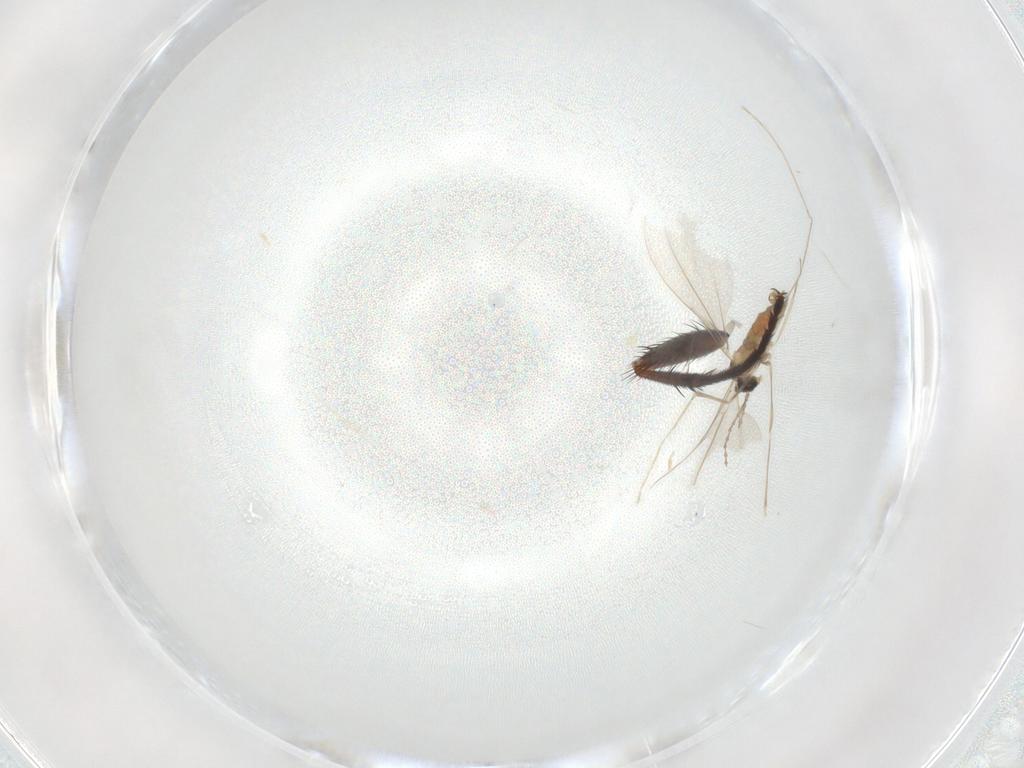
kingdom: Animalia
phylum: Arthropoda
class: Insecta
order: Diptera
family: Cecidomyiidae
